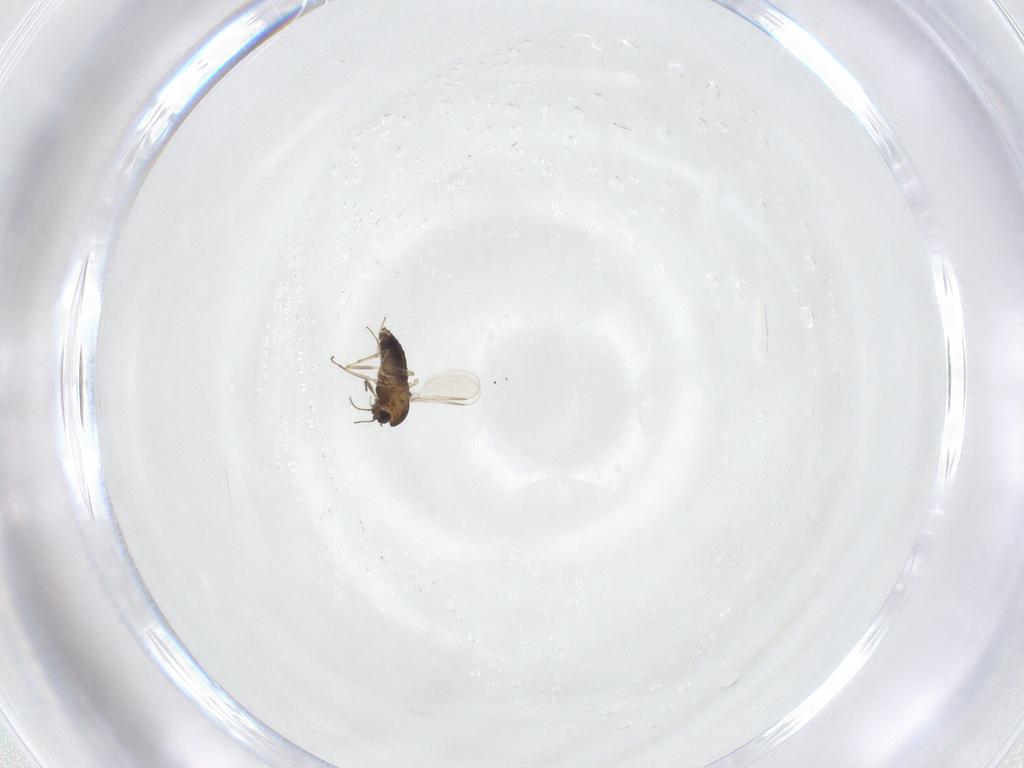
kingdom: Animalia
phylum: Arthropoda
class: Insecta
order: Diptera
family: Chironomidae
